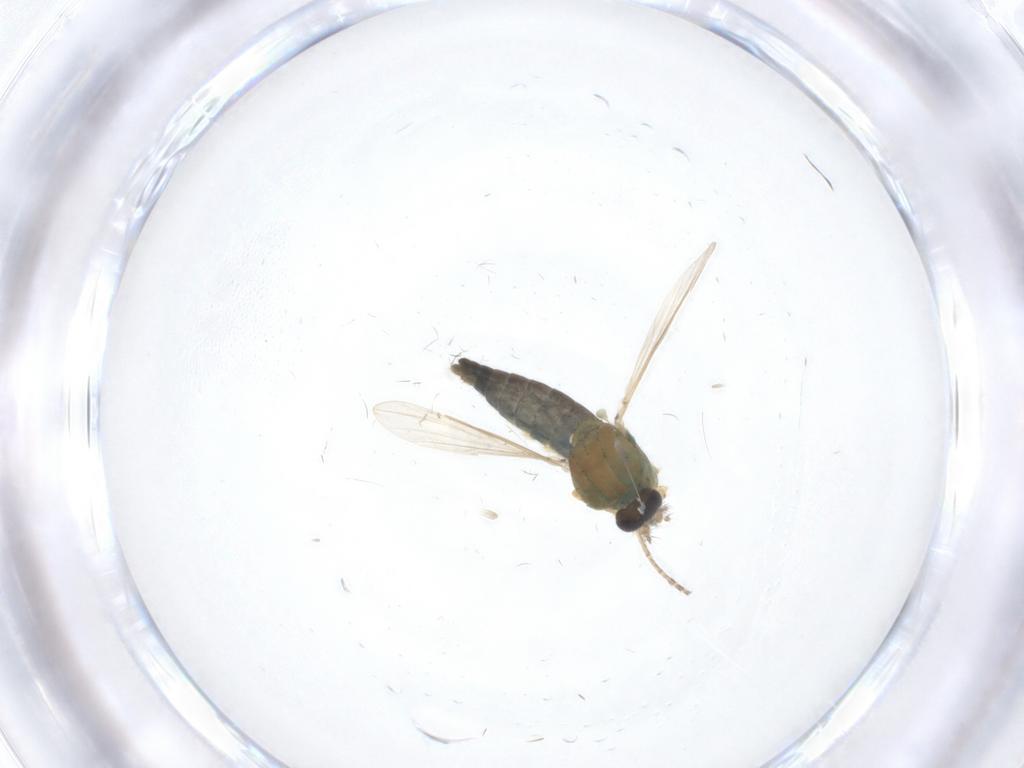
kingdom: Animalia
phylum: Arthropoda
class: Insecta
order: Diptera
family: Ceratopogonidae
